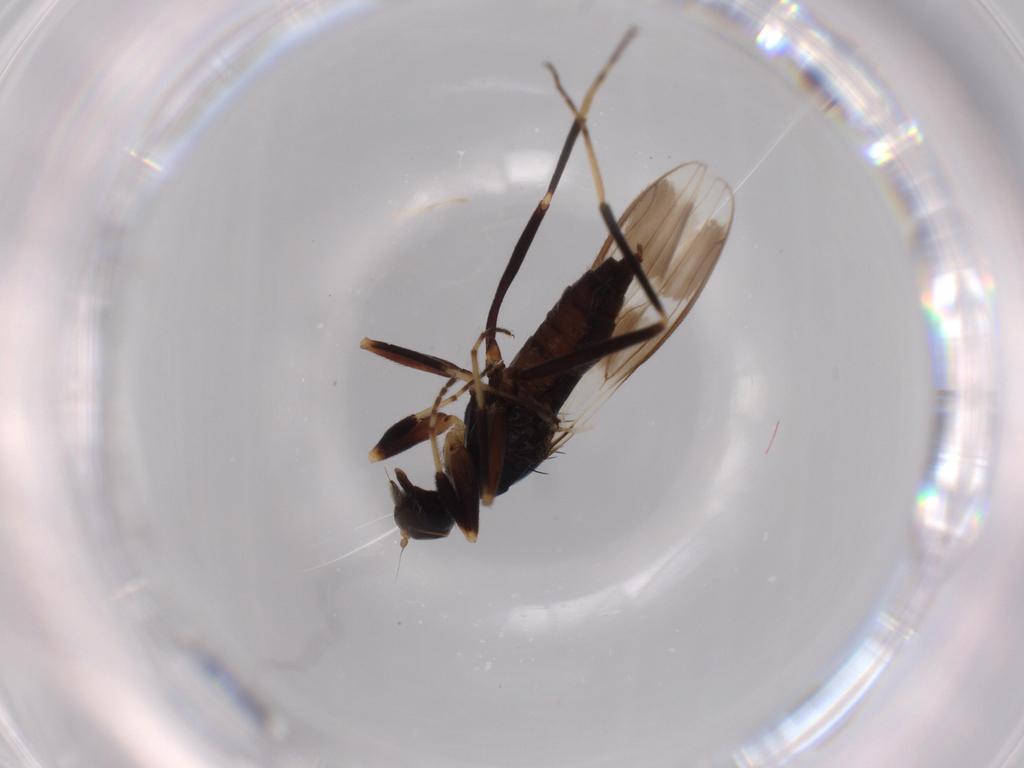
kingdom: Animalia
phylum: Arthropoda
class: Insecta
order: Diptera
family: Hybotidae
